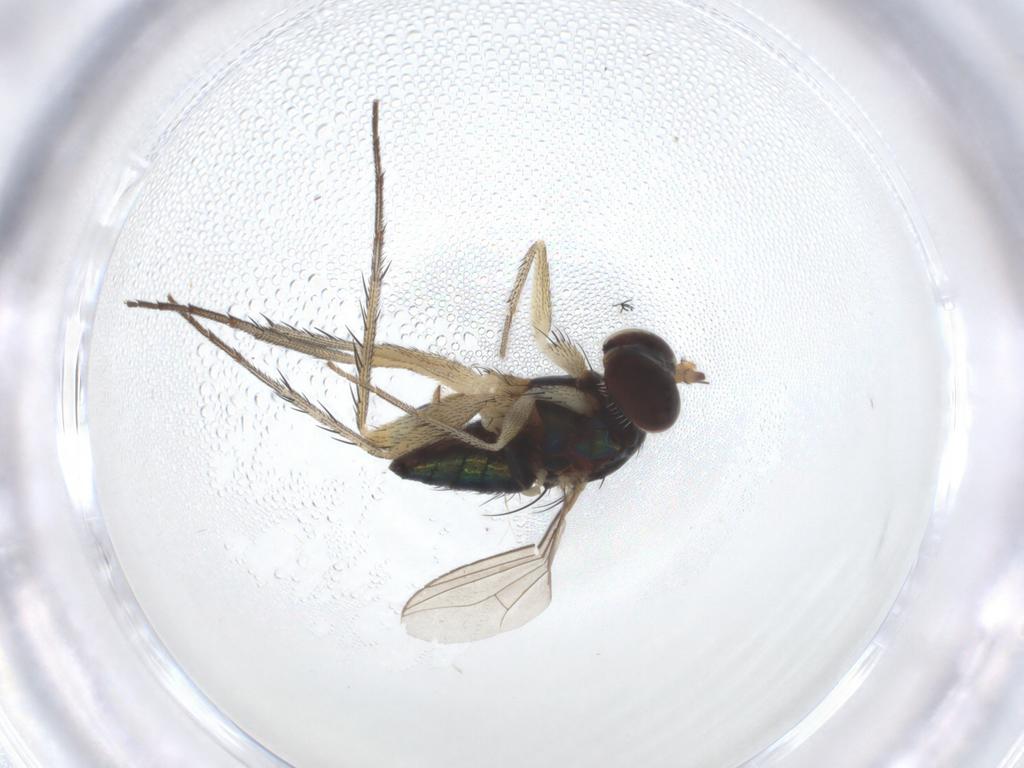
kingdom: Animalia
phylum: Arthropoda
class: Insecta
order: Diptera
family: Dolichopodidae
